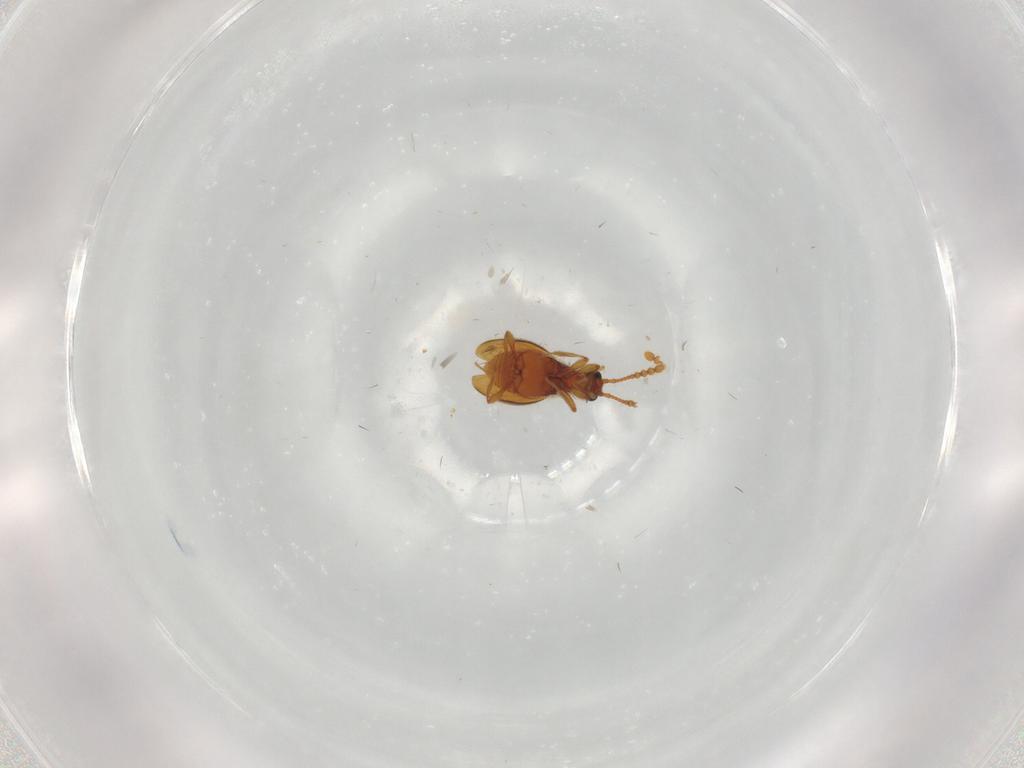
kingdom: Animalia
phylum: Arthropoda
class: Insecta
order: Coleoptera
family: Staphylinidae
